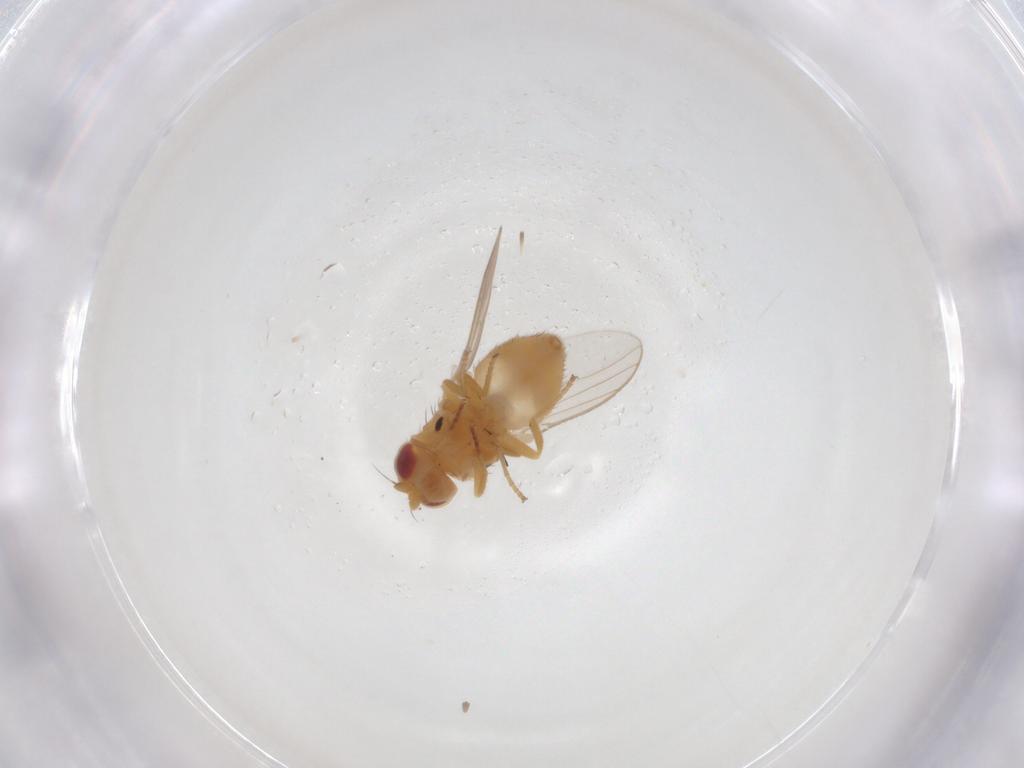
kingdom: Animalia
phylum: Arthropoda
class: Insecta
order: Diptera
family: Chloropidae
